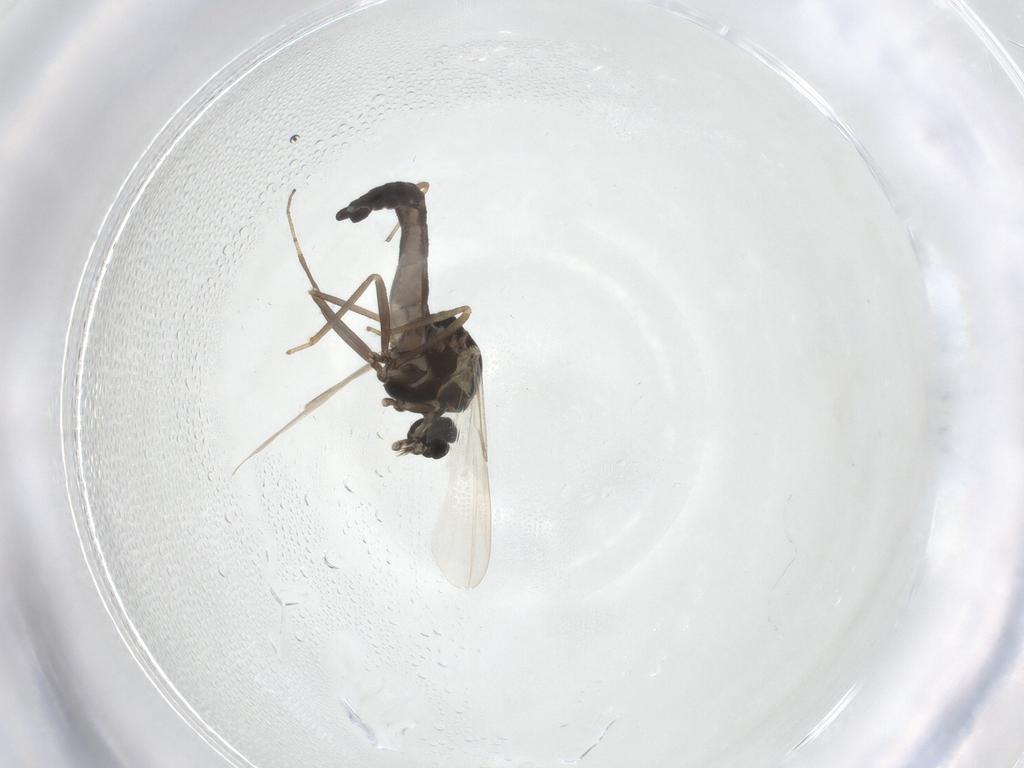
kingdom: Animalia
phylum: Arthropoda
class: Insecta
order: Diptera
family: Ceratopogonidae
